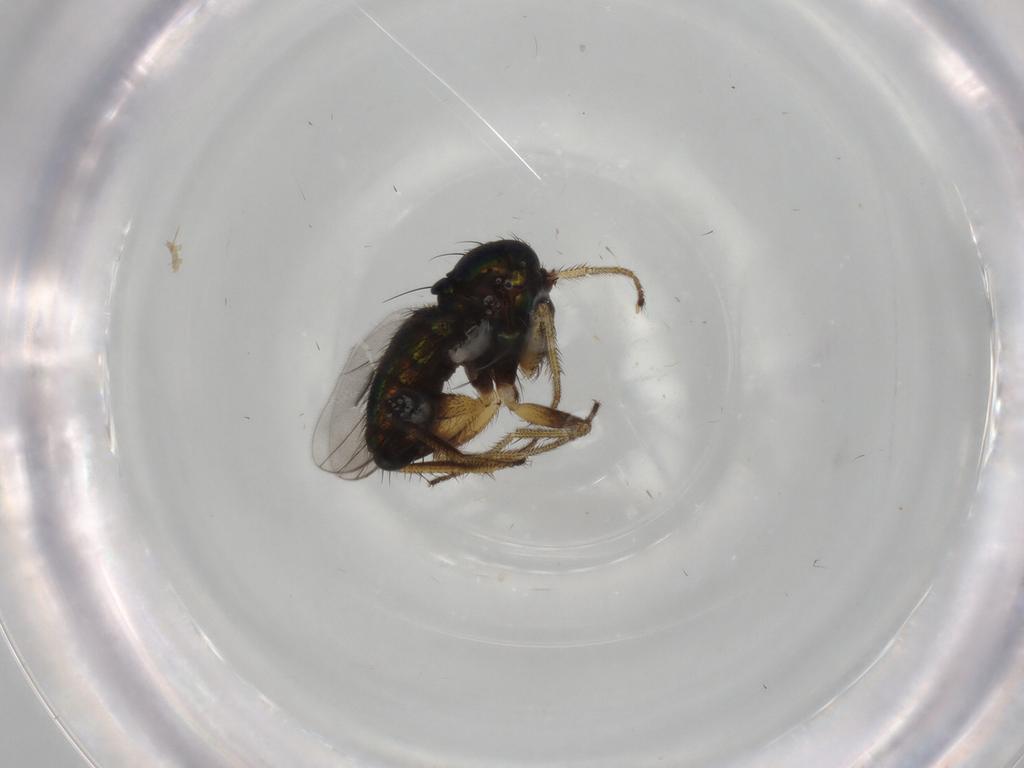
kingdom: Animalia
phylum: Arthropoda
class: Insecta
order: Diptera
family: Dolichopodidae
